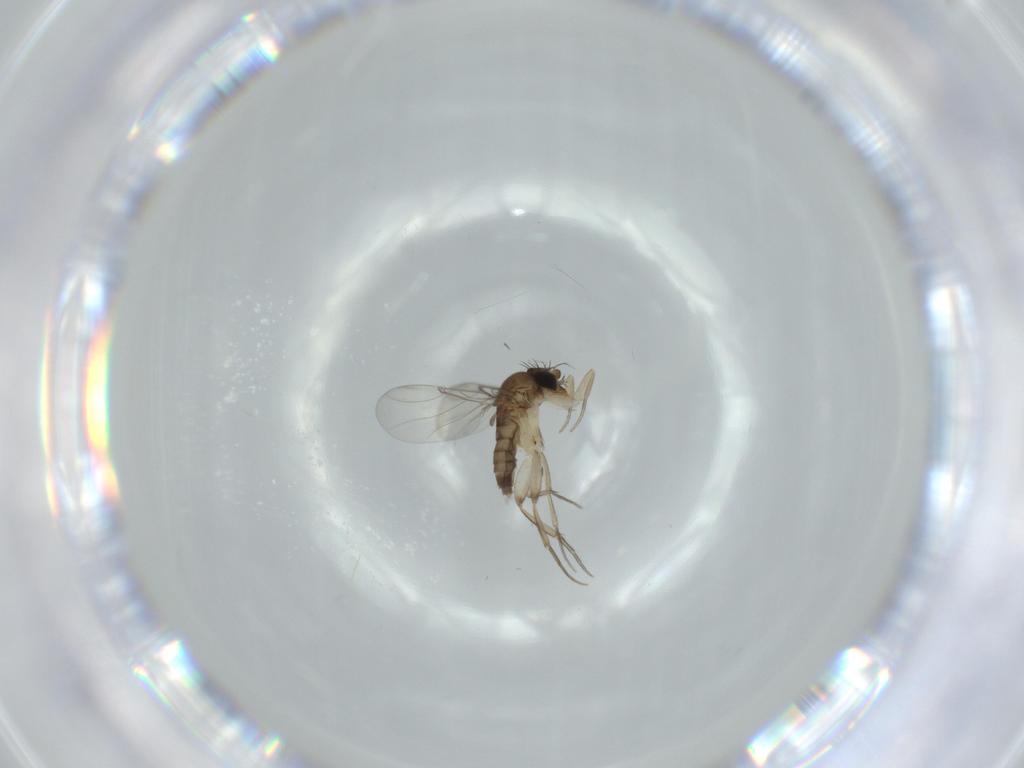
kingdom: Animalia
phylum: Arthropoda
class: Insecta
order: Diptera
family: Phoridae
